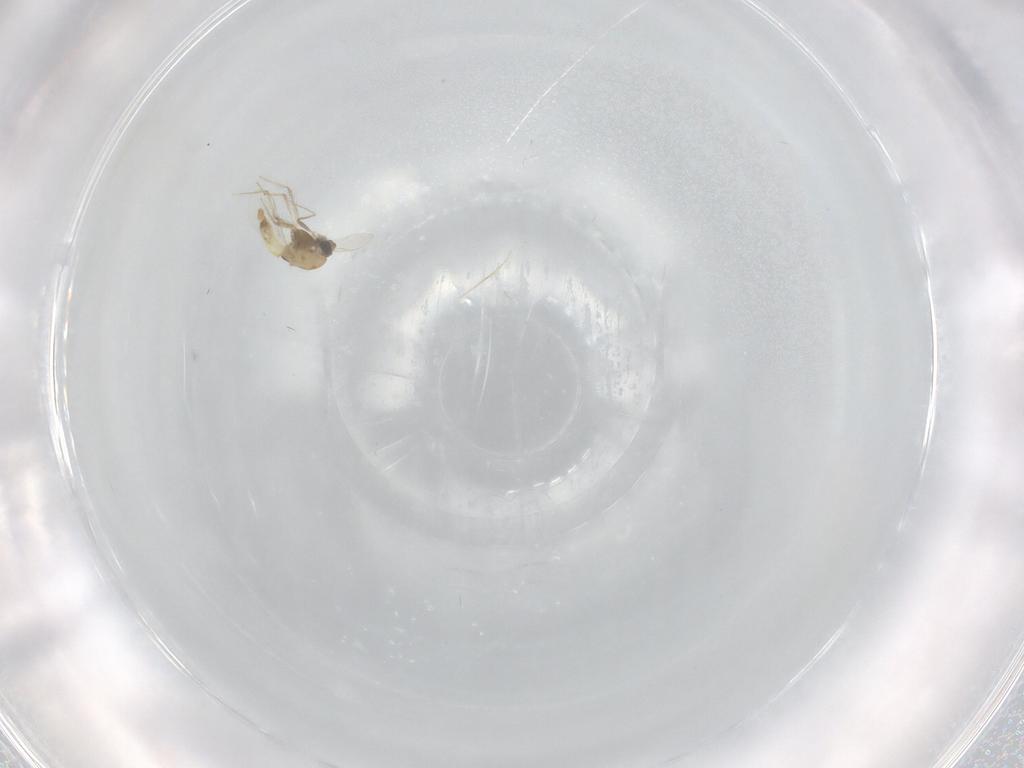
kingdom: Animalia
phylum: Arthropoda
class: Insecta
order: Diptera
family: Chironomidae
